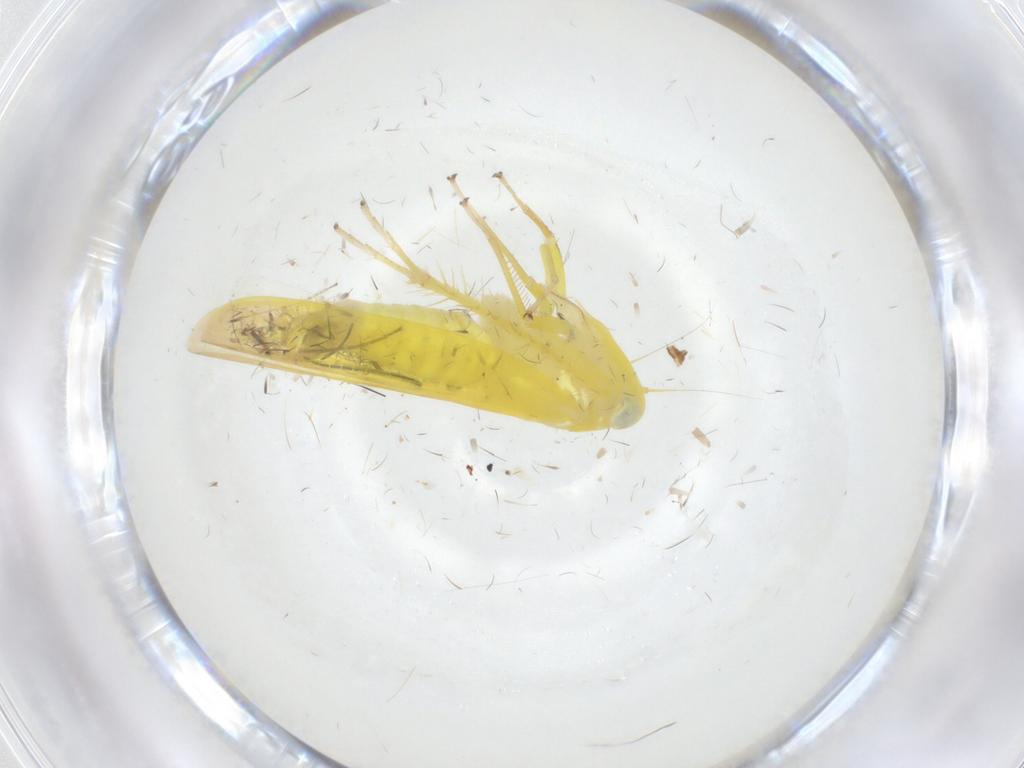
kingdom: Animalia
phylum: Arthropoda
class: Insecta
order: Hemiptera
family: Cicadellidae
